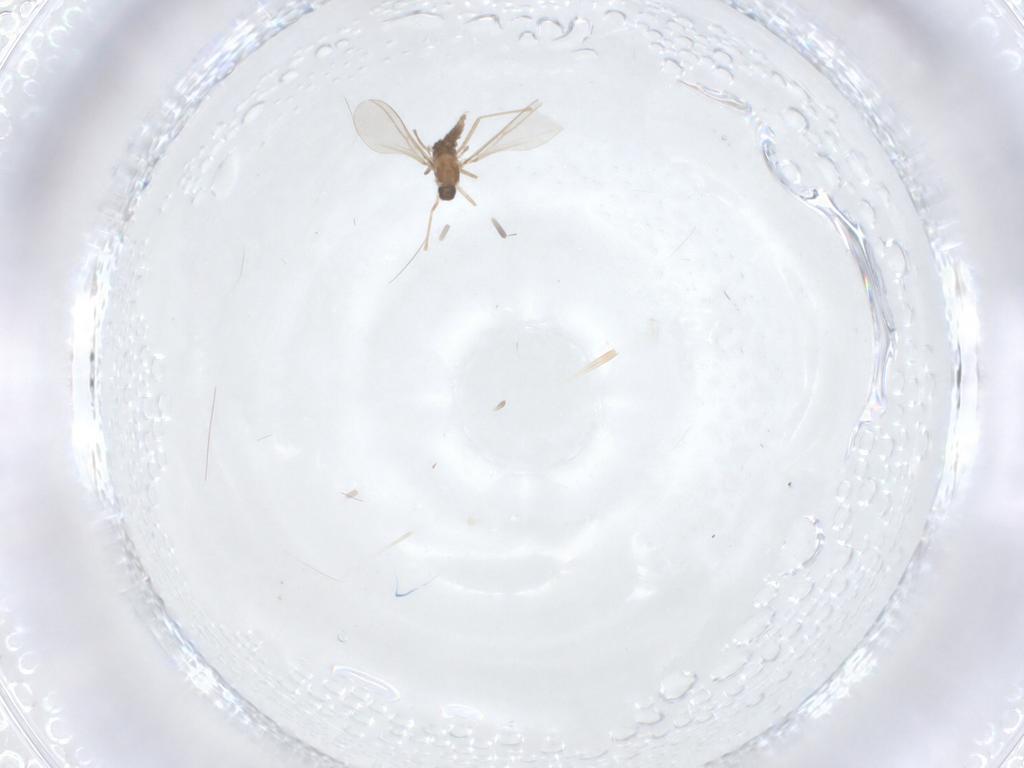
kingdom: Animalia
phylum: Arthropoda
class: Insecta
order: Diptera
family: Cecidomyiidae
